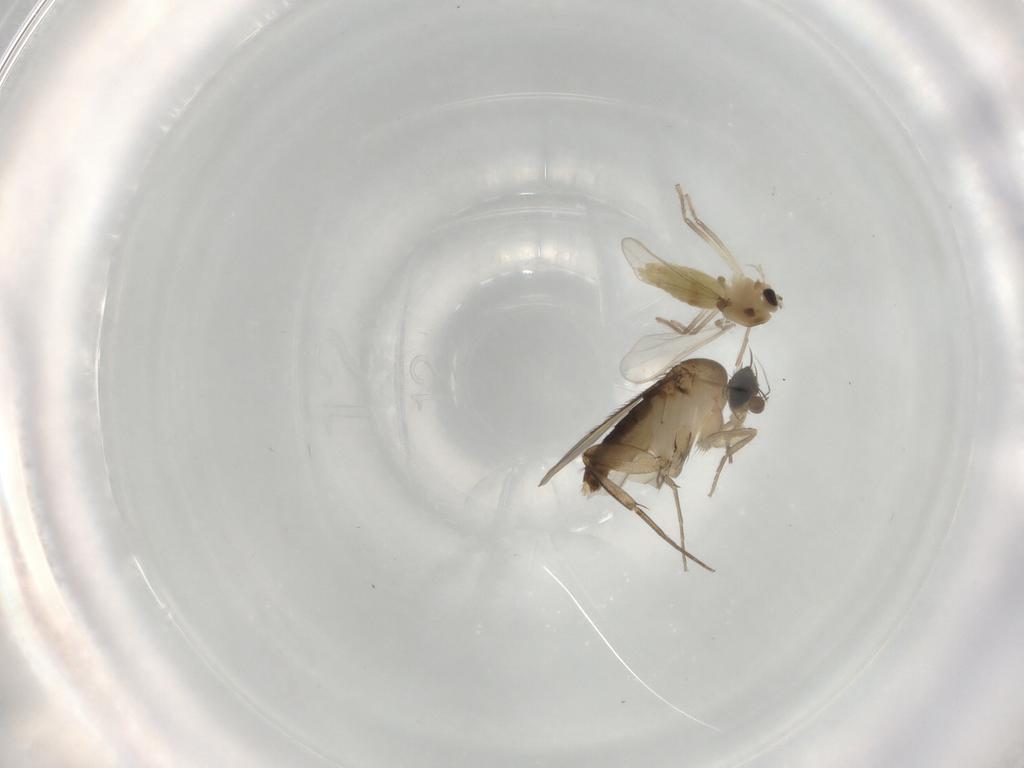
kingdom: Animalia
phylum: Arthropoda
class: Insecta
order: Diptera
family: Phoridae
